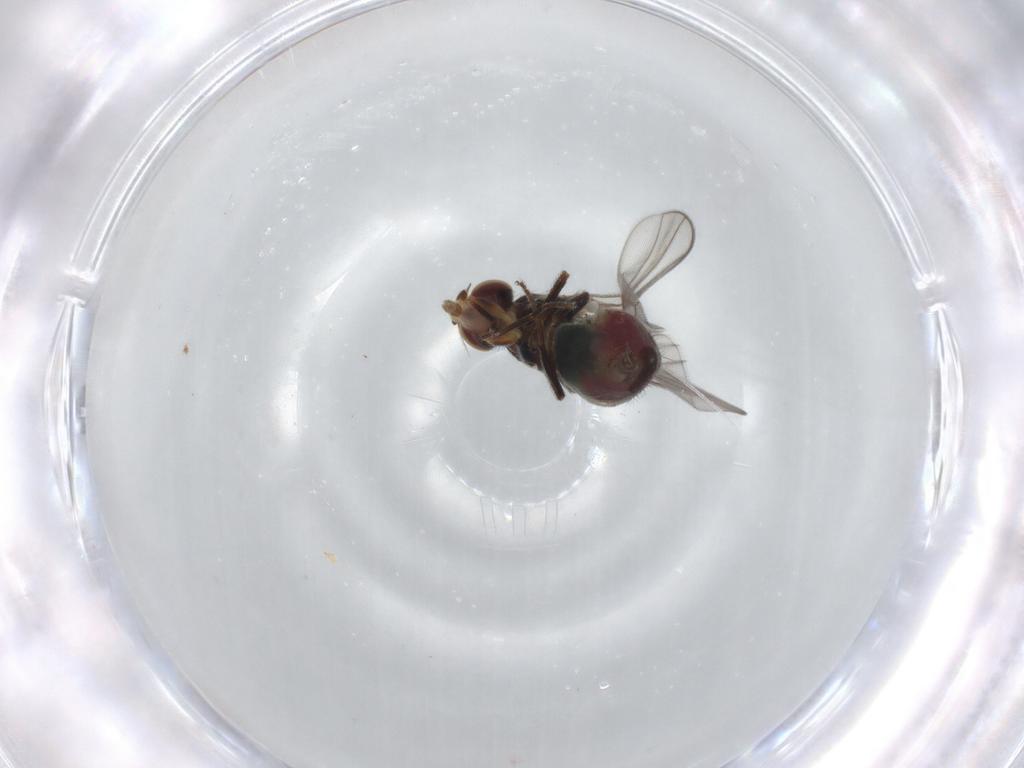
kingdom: Animalia
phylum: Arthropoda
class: Insecta
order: Diptera
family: Chloropidae
